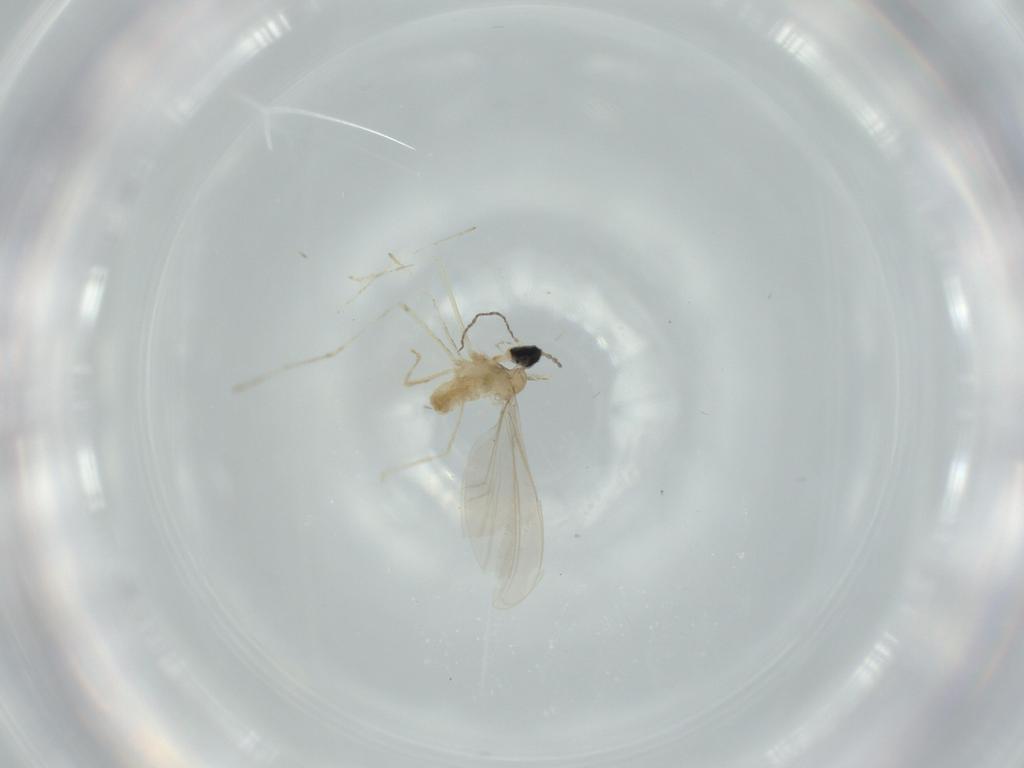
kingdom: Animalia
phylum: Arthropoda
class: Insecta
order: Diptera
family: Cecidomyiidae
